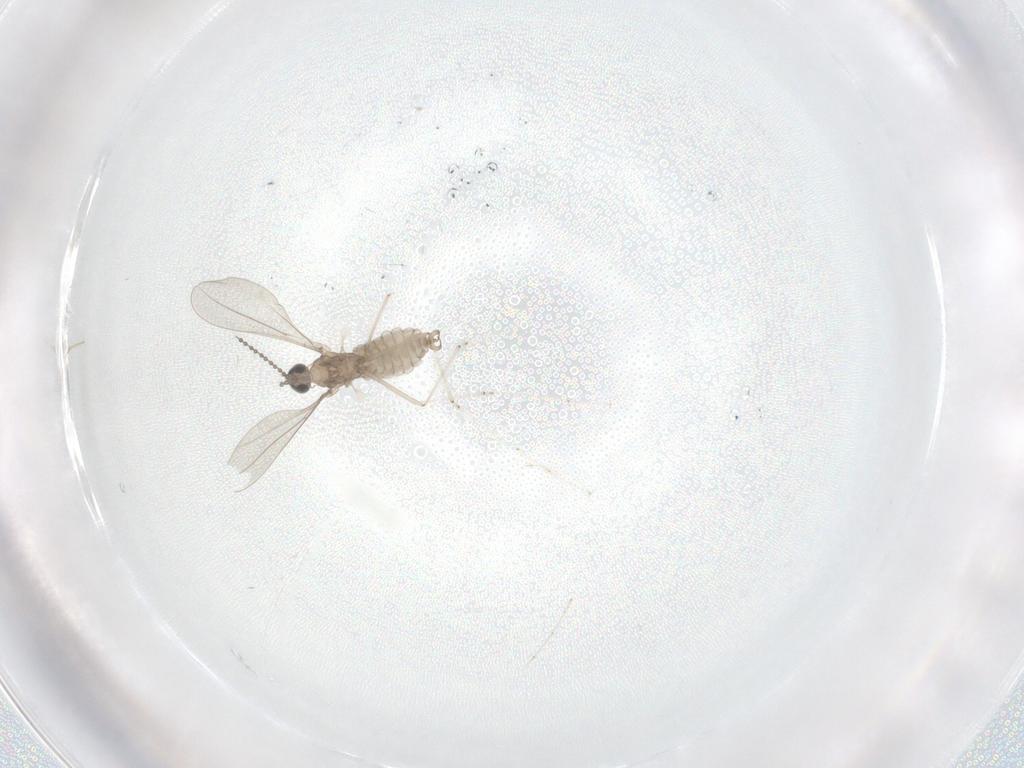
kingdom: Animalia
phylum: Arthropoda
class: Insecta
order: Diptera
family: Cecidomyiidae
